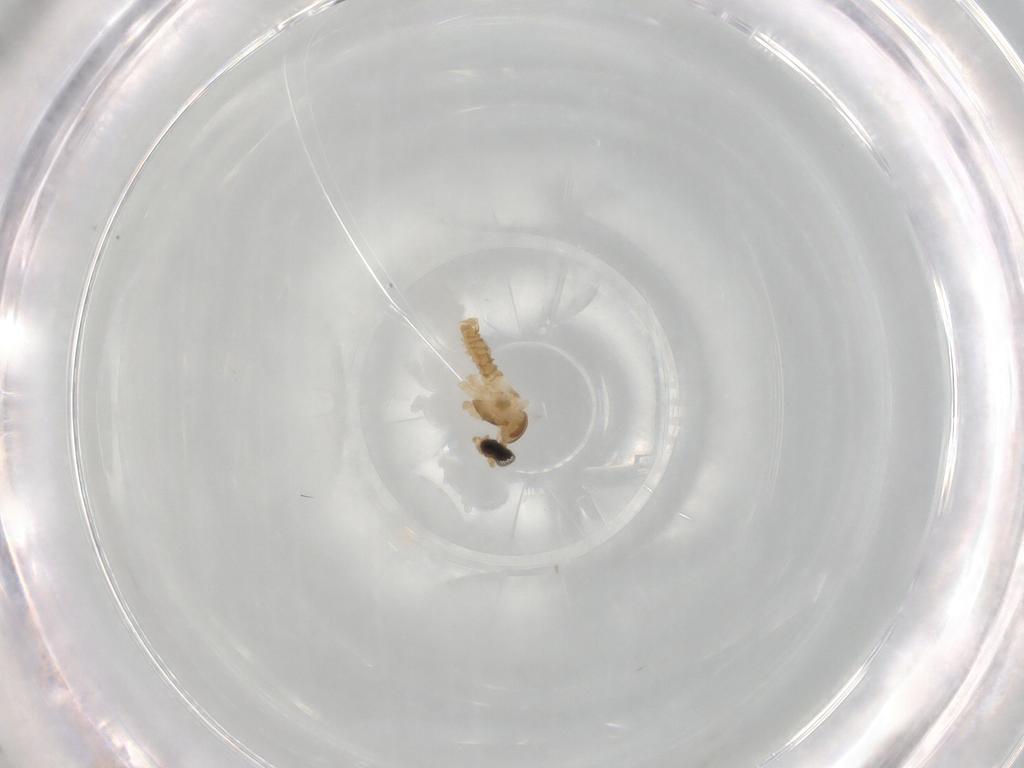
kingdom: Animalia
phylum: Arthropoda
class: Insecta
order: Diptera
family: Cecidomyiidae
